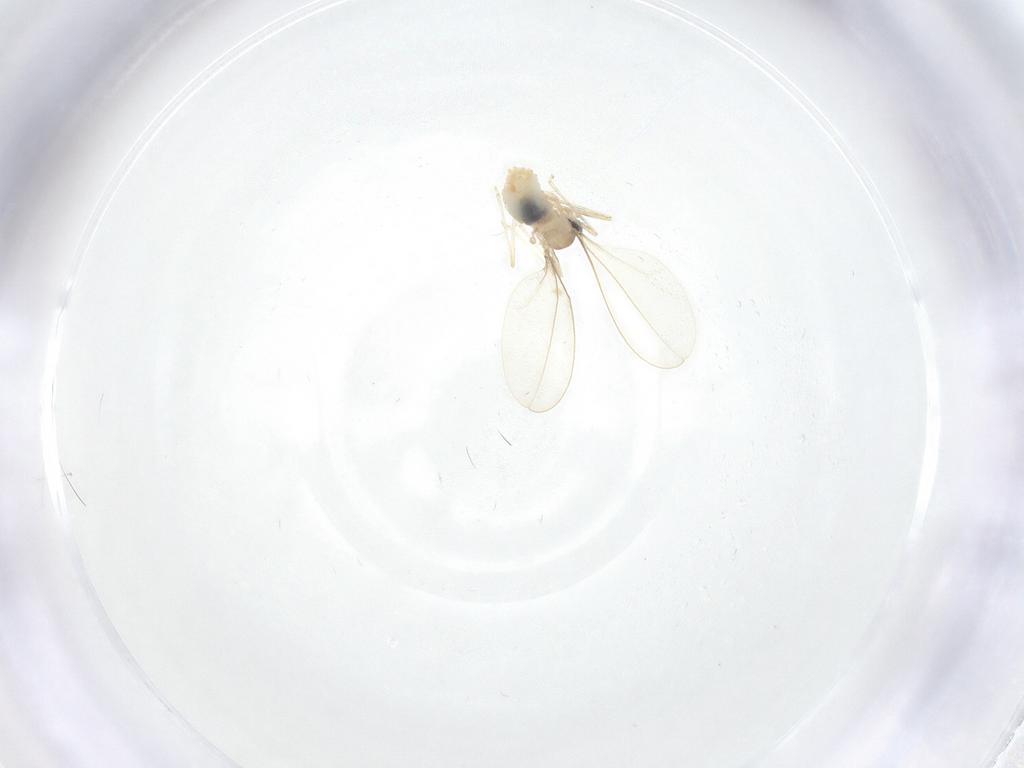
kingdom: Animalia
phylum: Arthropoda
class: Insecta
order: Diptera
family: Cecidomyiidae
